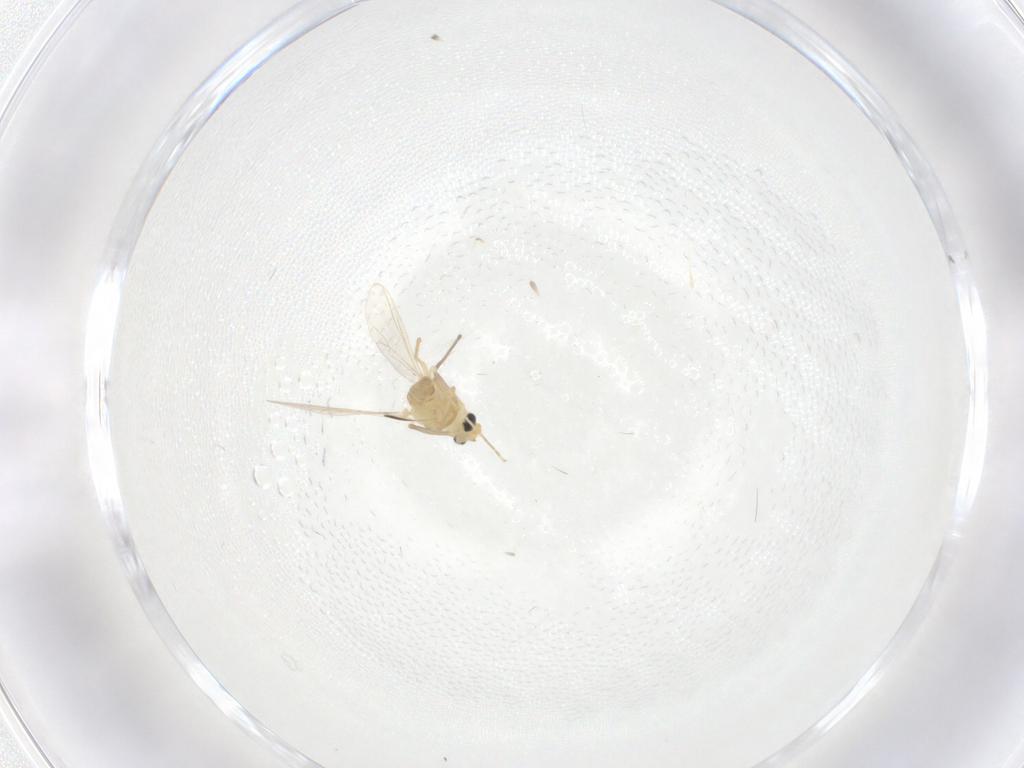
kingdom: Animalia
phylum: Arthropoda
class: Insecta
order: Diptera
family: Chironomidae
